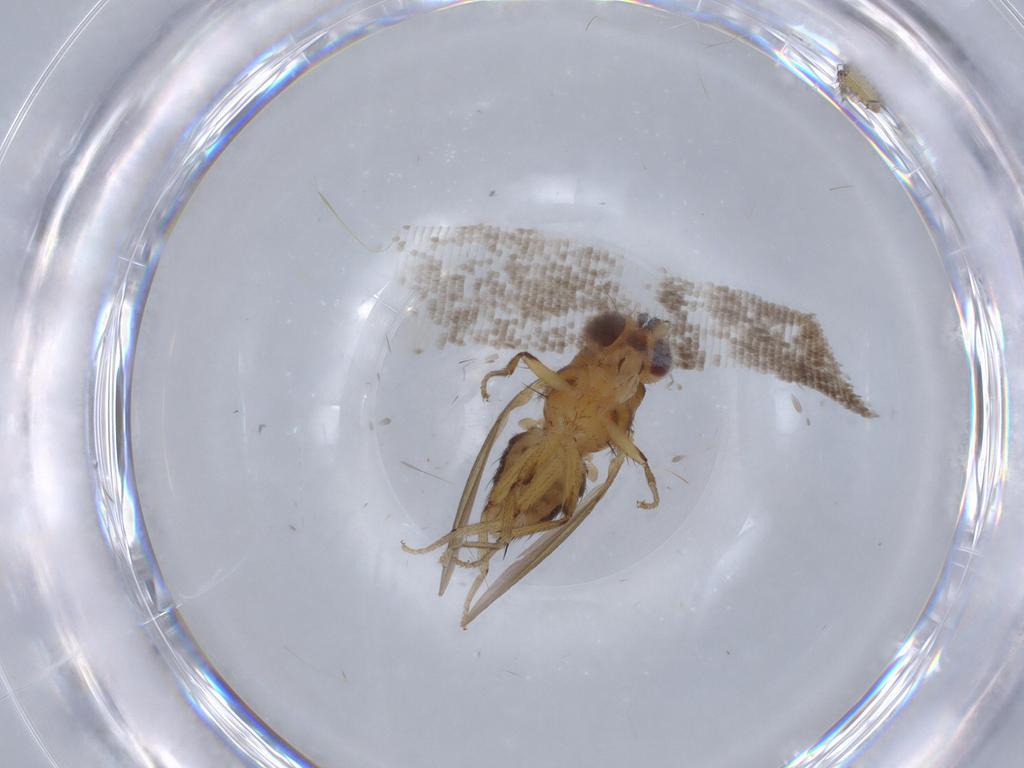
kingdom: Animalia
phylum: Arthropoda
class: Insecta
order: Diptera
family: Ceratopogonidae
